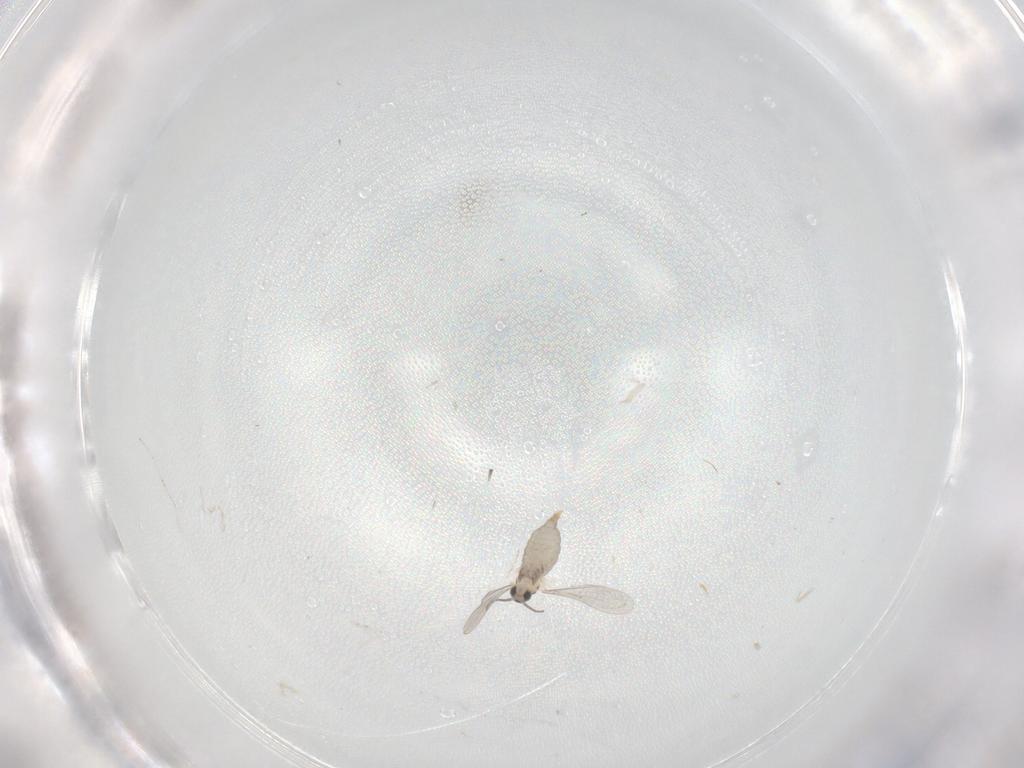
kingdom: Animalia
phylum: Arthropoda
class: Insecta
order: Diptera
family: Cecidomyiidae
